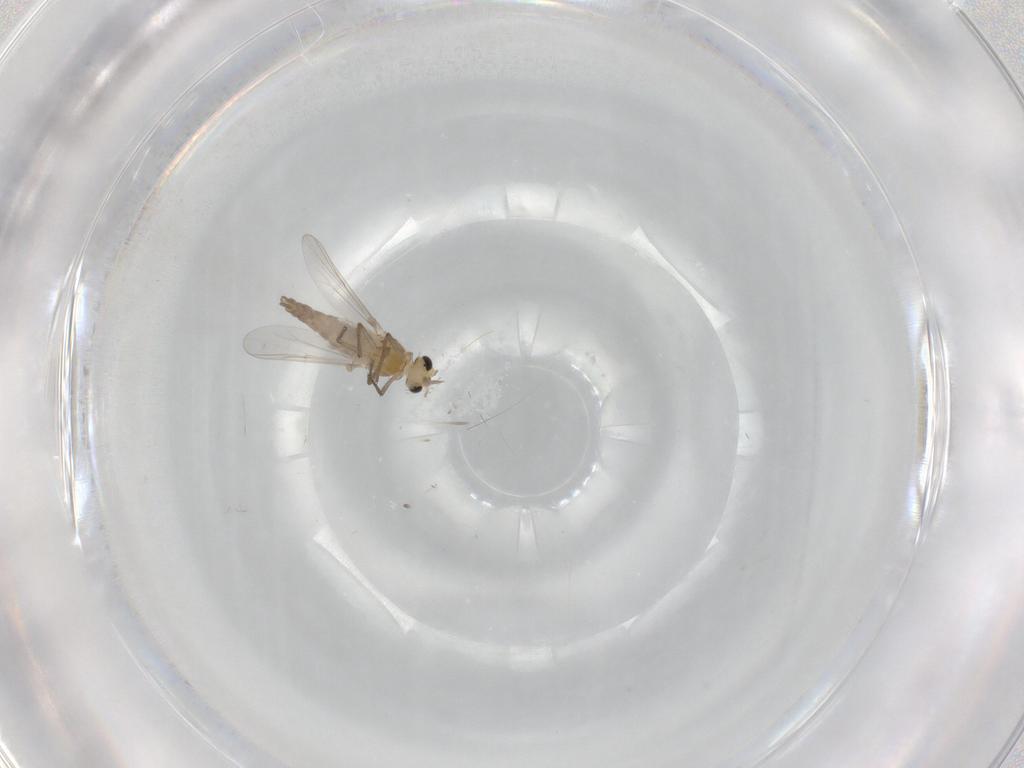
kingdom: Animalia
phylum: Arthropoda
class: Insecta
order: Diptera
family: Chironomidae
